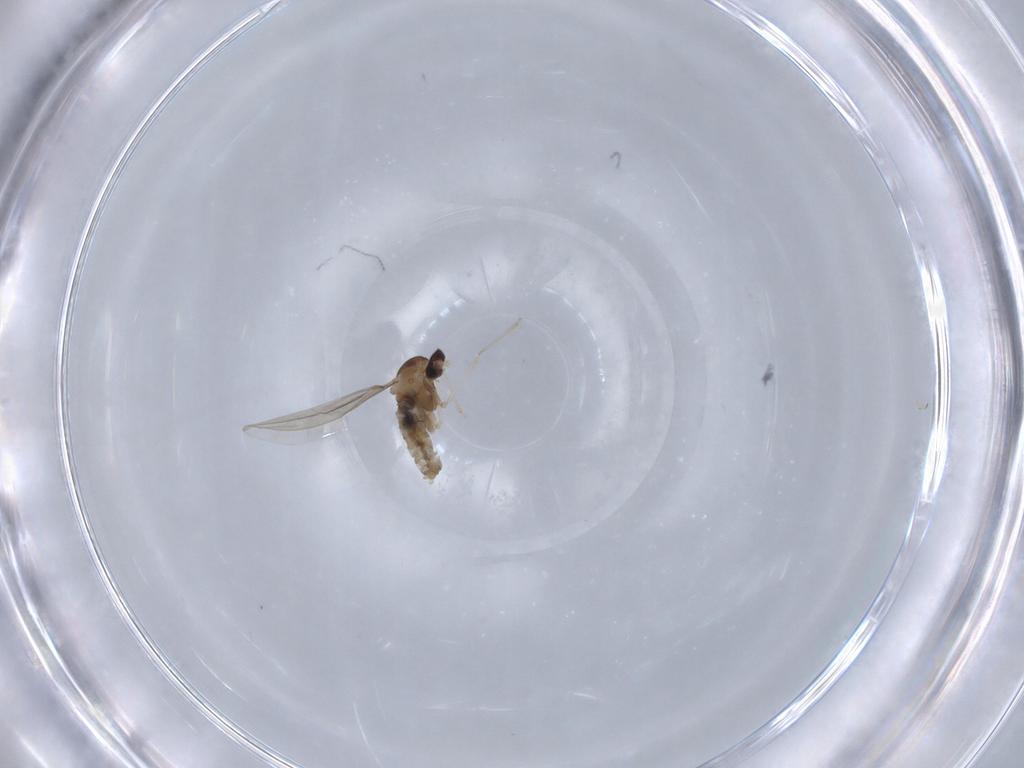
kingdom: Animalia
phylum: Arthropoda
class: Insecta
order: Diptera
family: Cecidomyiidae
